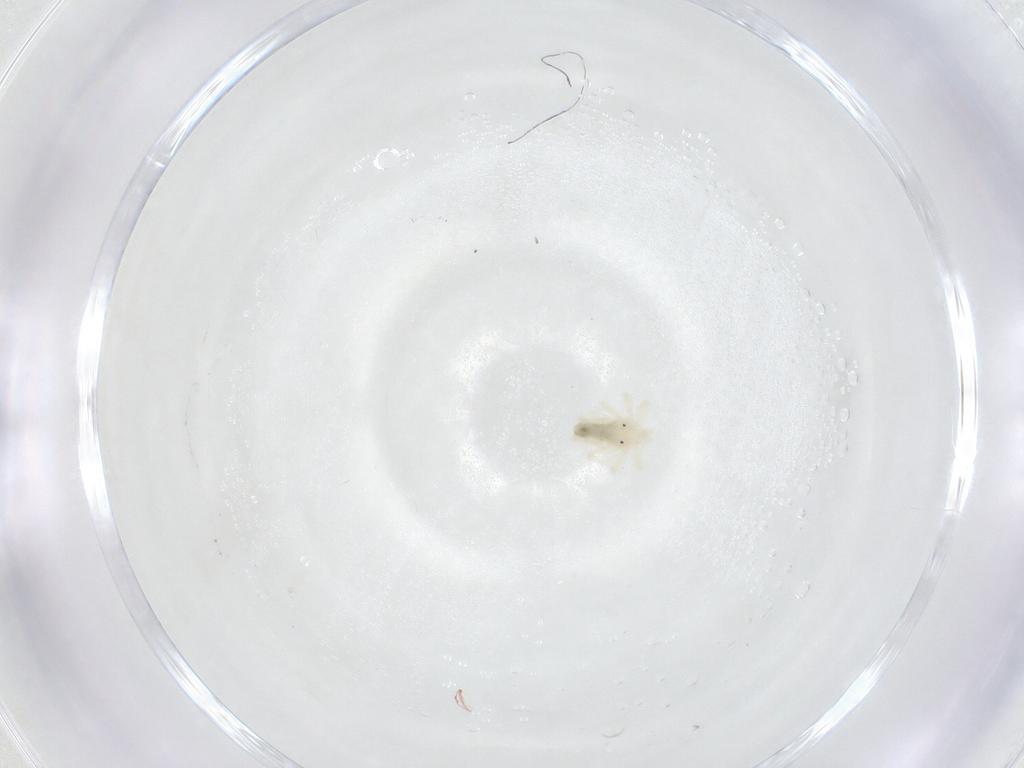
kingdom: Animalia
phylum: Arthropoda
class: Arachnida
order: Trombidiformes
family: Anystidae
